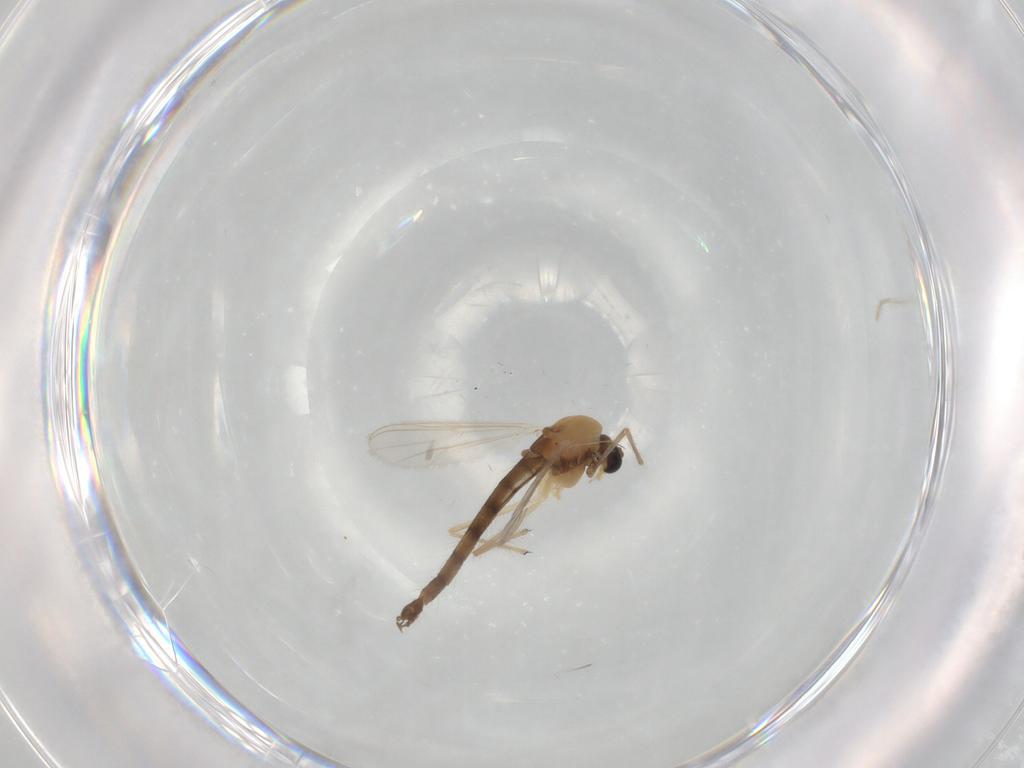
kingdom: Animalia
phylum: Arthropoda
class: Insecta
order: Diptera
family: Chironomidae
